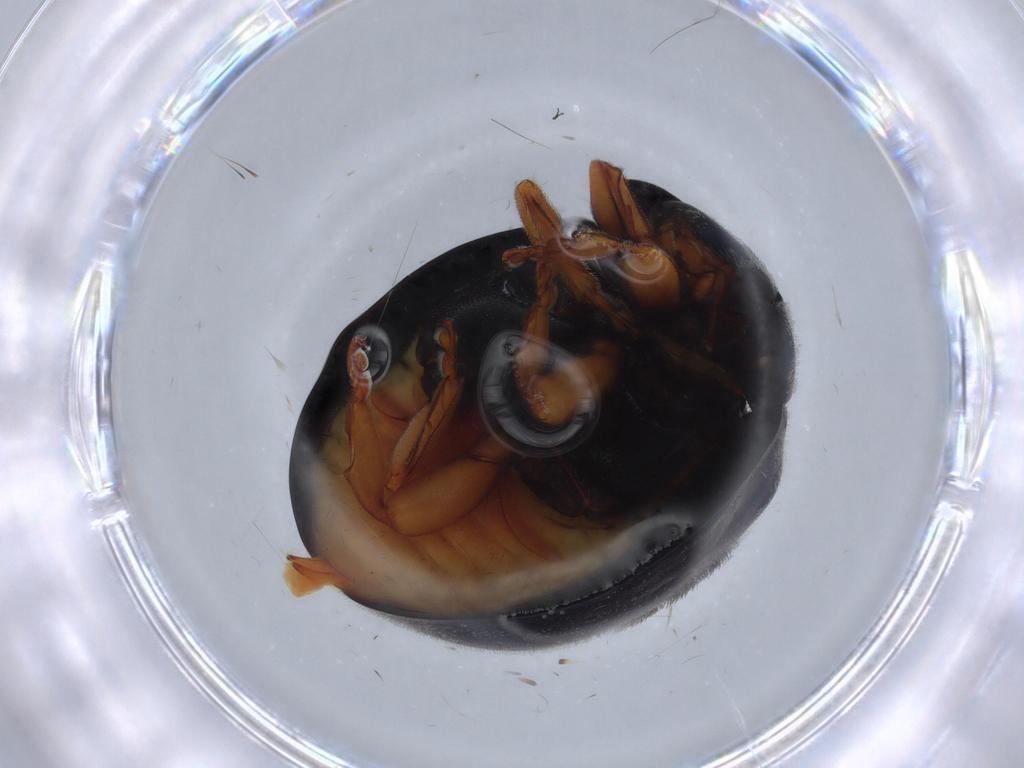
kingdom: Animalia
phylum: Arthropoda
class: Insecta
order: Coleoptera
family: Coccinellidae
